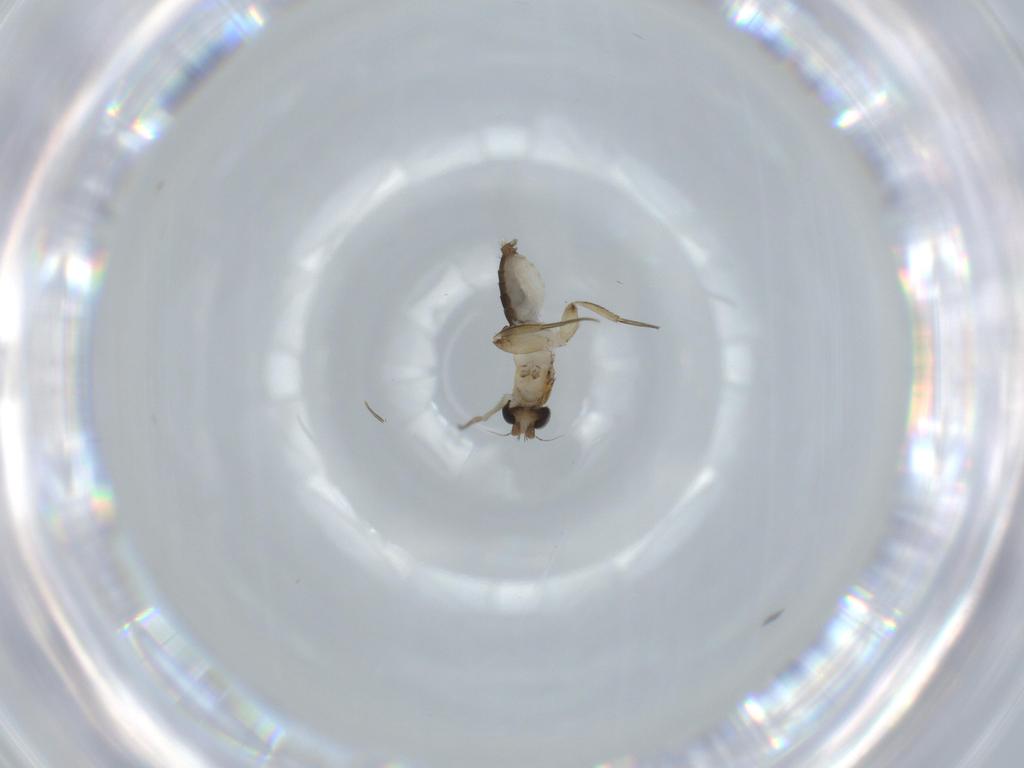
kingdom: Animalia
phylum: Arthropoda
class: Insecta
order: Diptera
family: Phoridae
